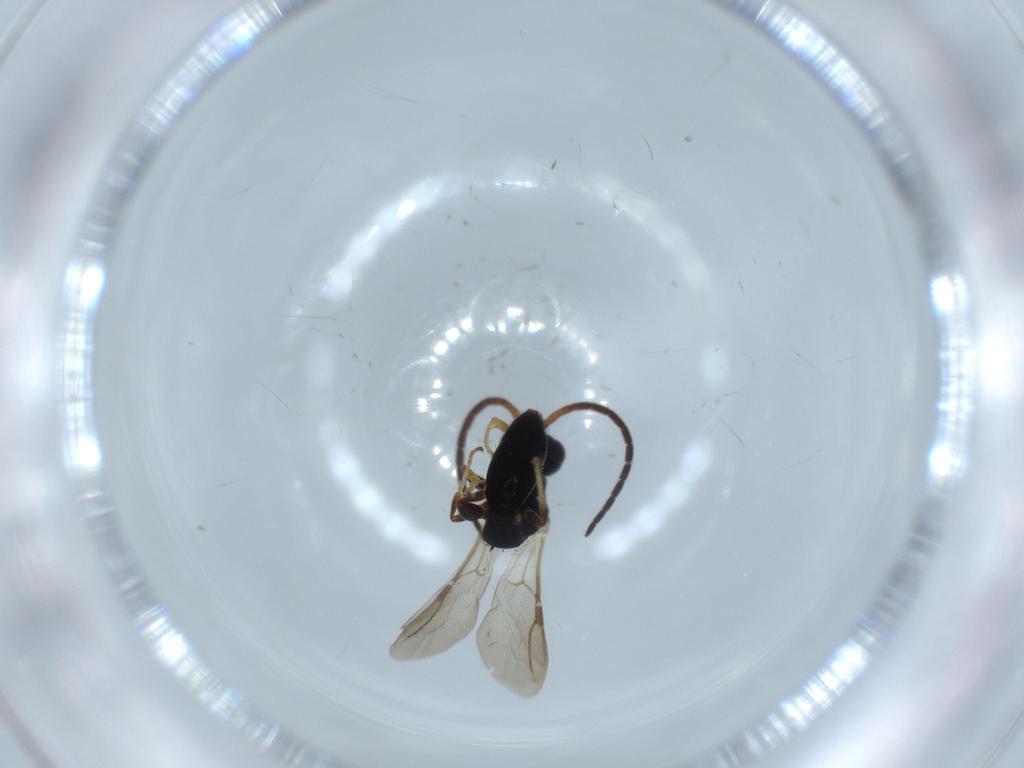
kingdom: Animalia
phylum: Arthropoda
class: Insecta
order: Hymenoptera
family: Bethylidae
